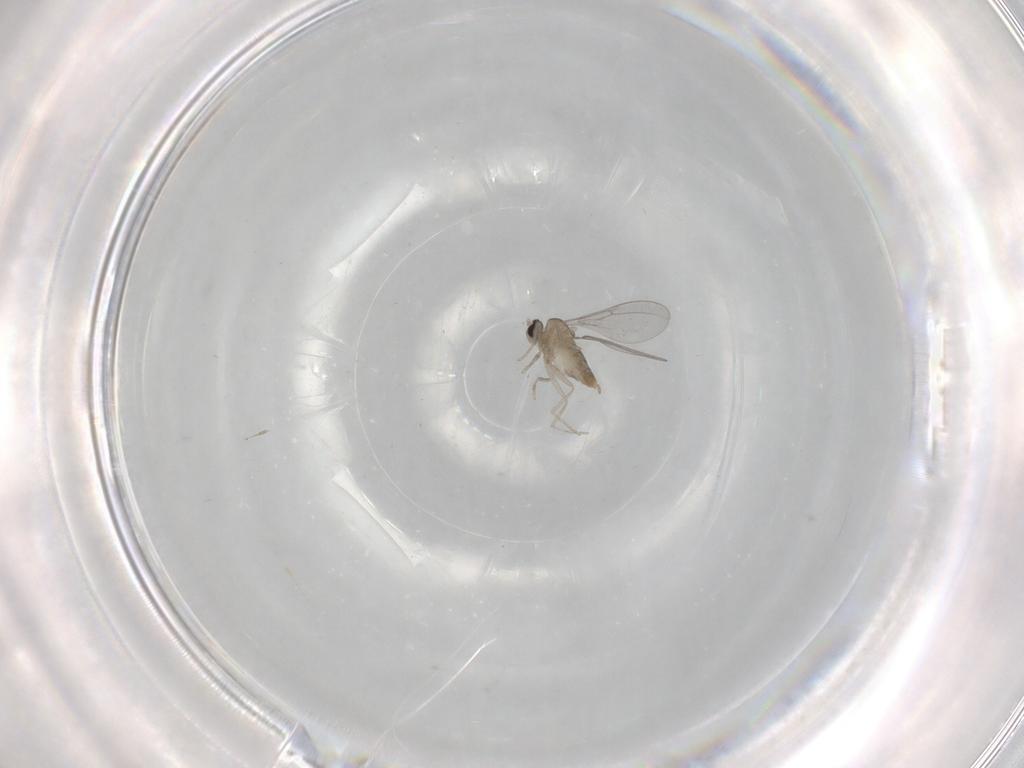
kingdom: Animalia
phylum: Arthropoda
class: Insecta
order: Diptera
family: Cecidomyiidae
